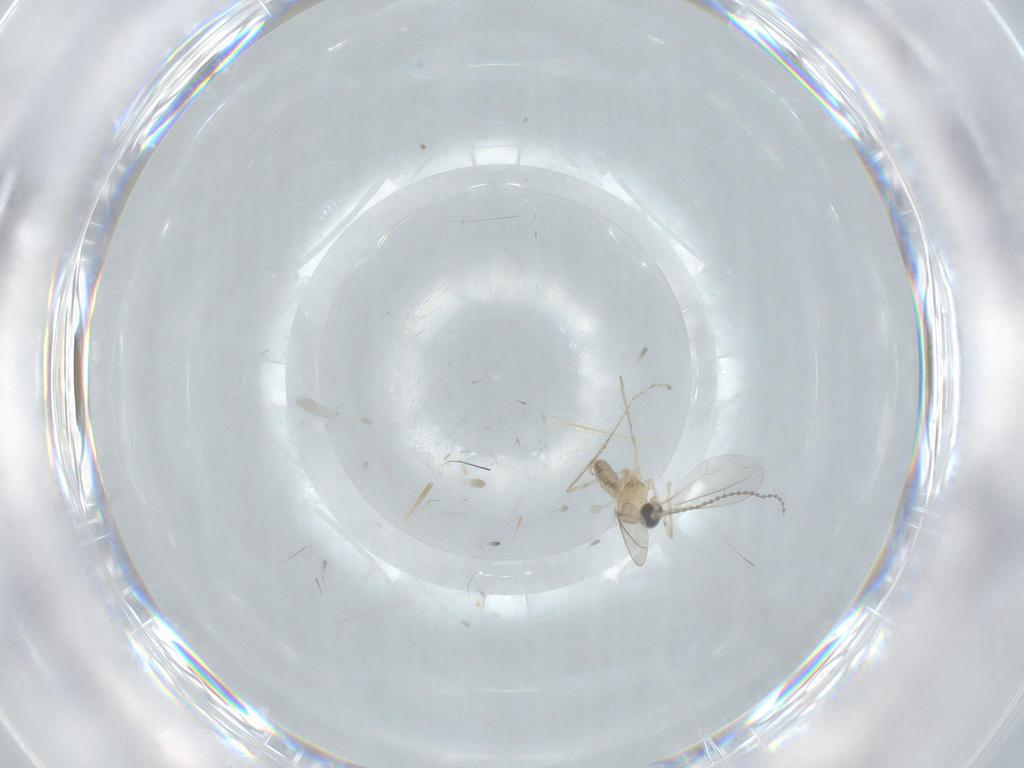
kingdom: Animalia
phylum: Arthropoda
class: Insecta
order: Diptera
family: Cecidomyiidae
